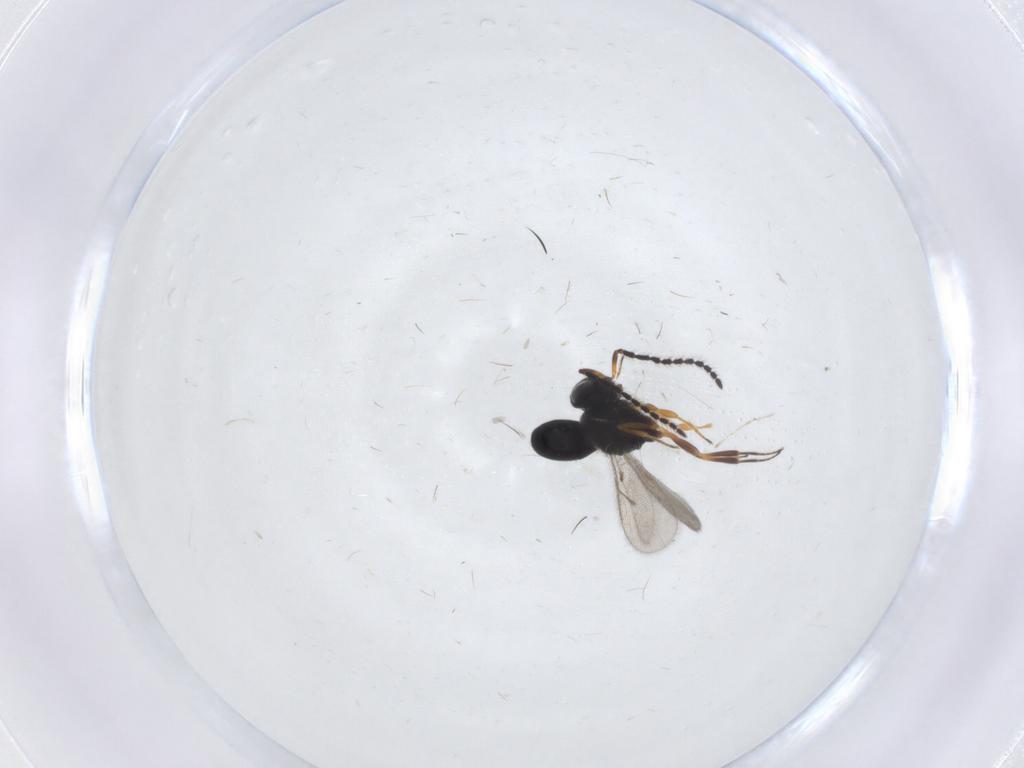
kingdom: Animalia
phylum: Arthropoda
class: Insecta
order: Hymenoptera
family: Scelionidae
